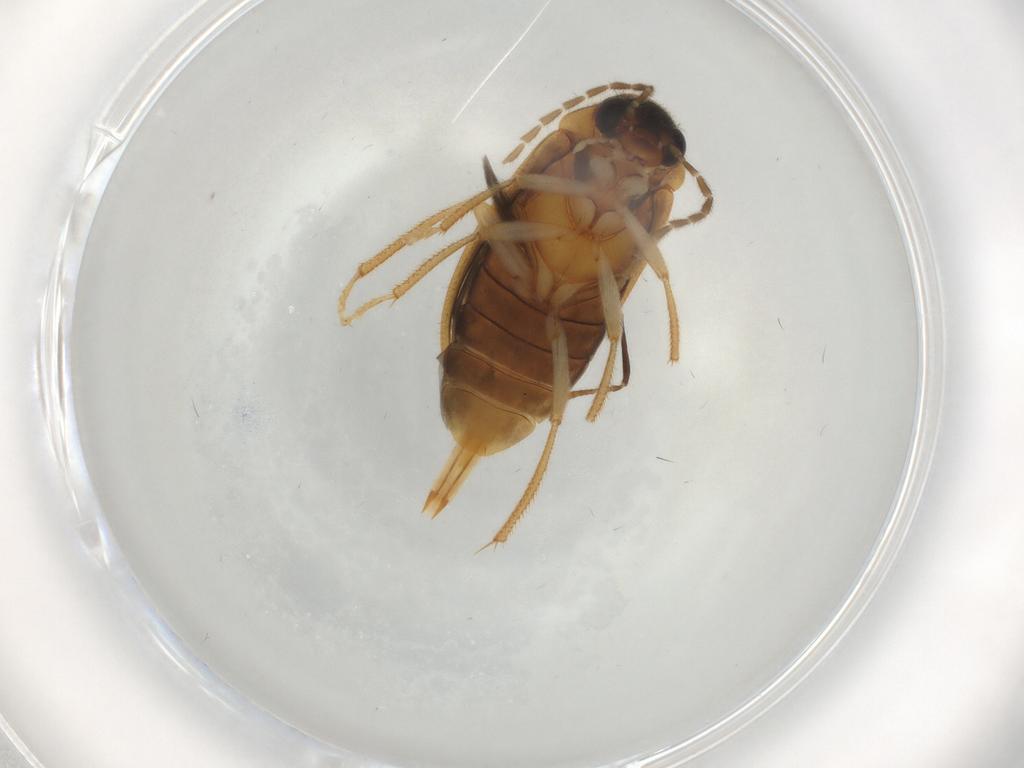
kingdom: Animalia
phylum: Arthropoda
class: Insecta
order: Coleoptera
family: Ptilodactylidae
